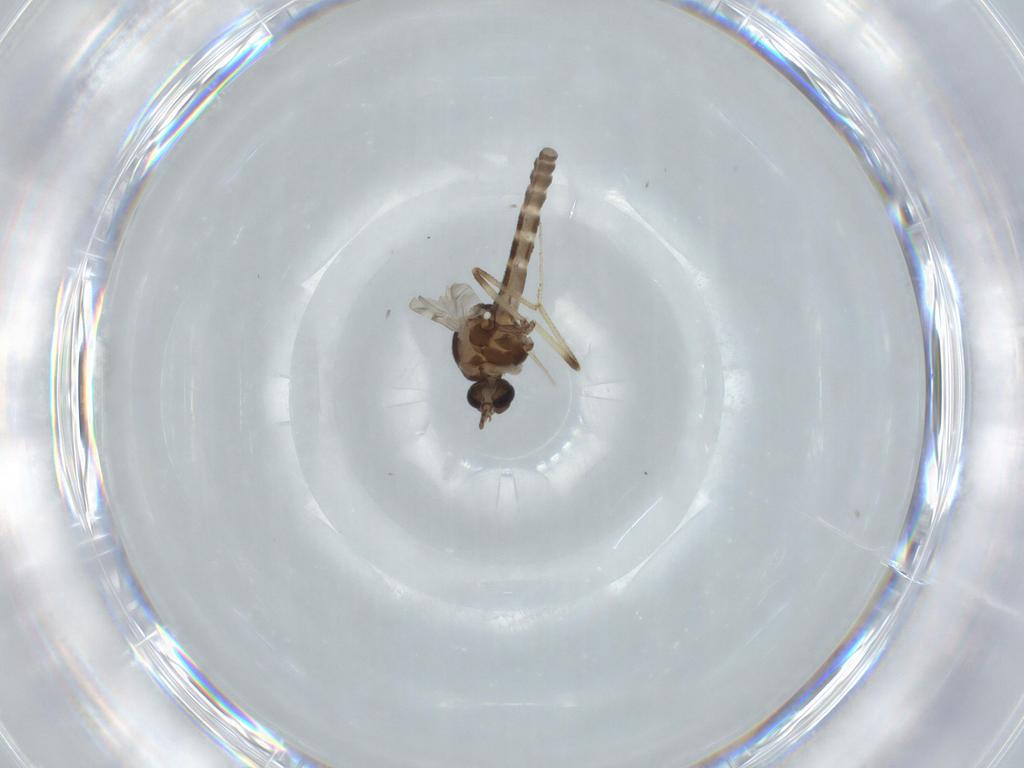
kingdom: Animalia
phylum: Arthropoda
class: Insecta
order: Diptera
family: Ceratopogonidae
